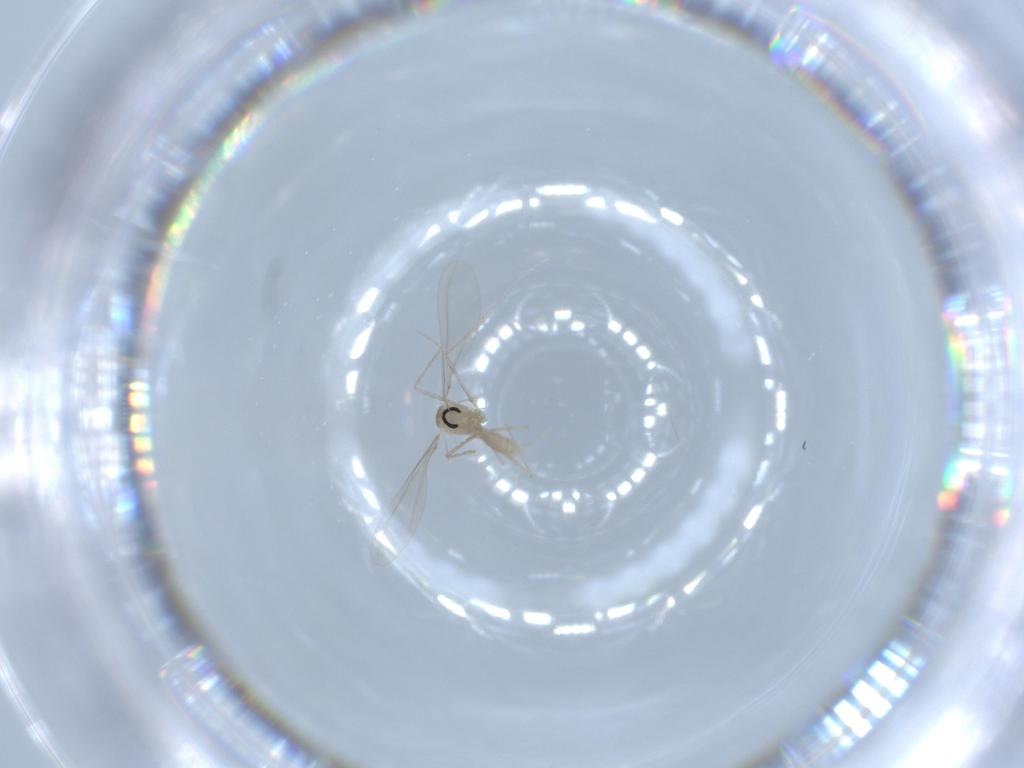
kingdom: Animalia
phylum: Arthropoda
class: Insecta
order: Diptera
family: Cecidomyiidae
